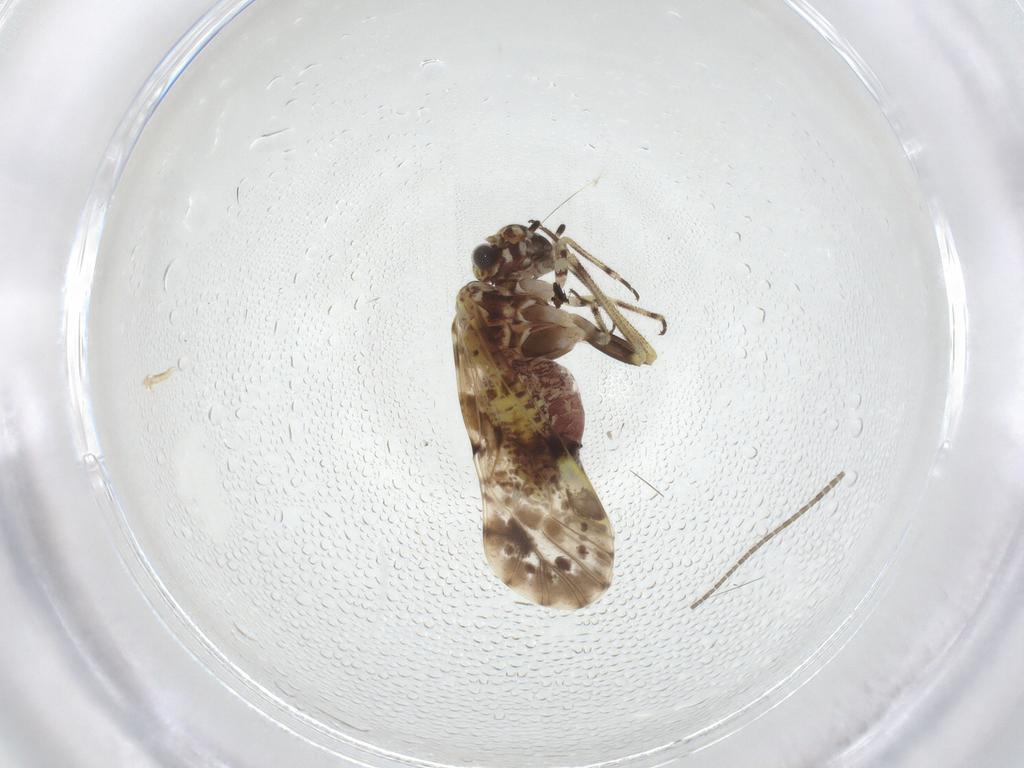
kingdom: Animalia
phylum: Arthropoda
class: Insecta
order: Psocodea
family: Psocidae
